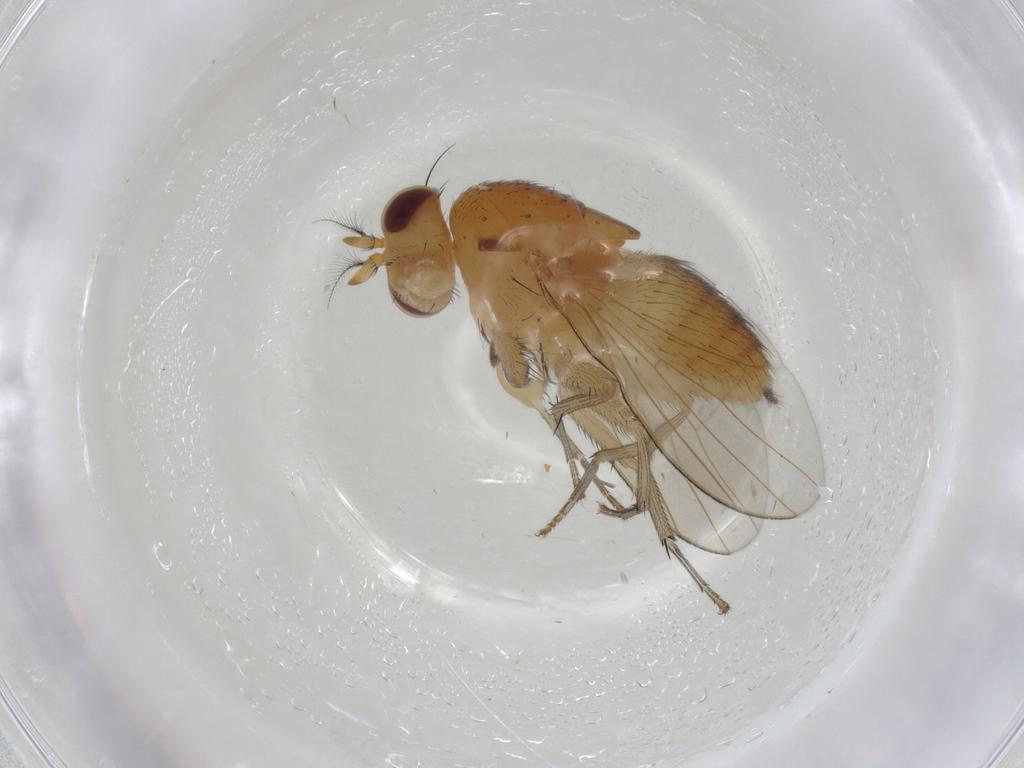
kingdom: Animalia
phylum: Arthropoda
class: Insecta
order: Diptera
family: Lauxaniidae
